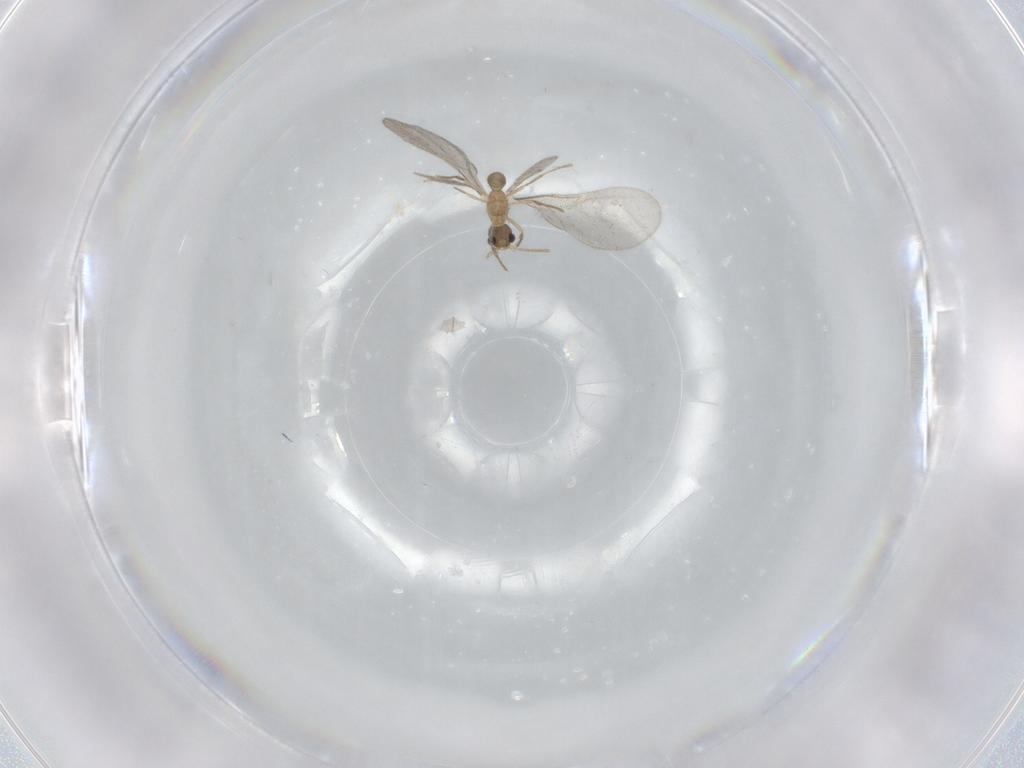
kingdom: Animalia
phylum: Arthropoda
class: Insecta
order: Hymenoptera
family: Formicidae
